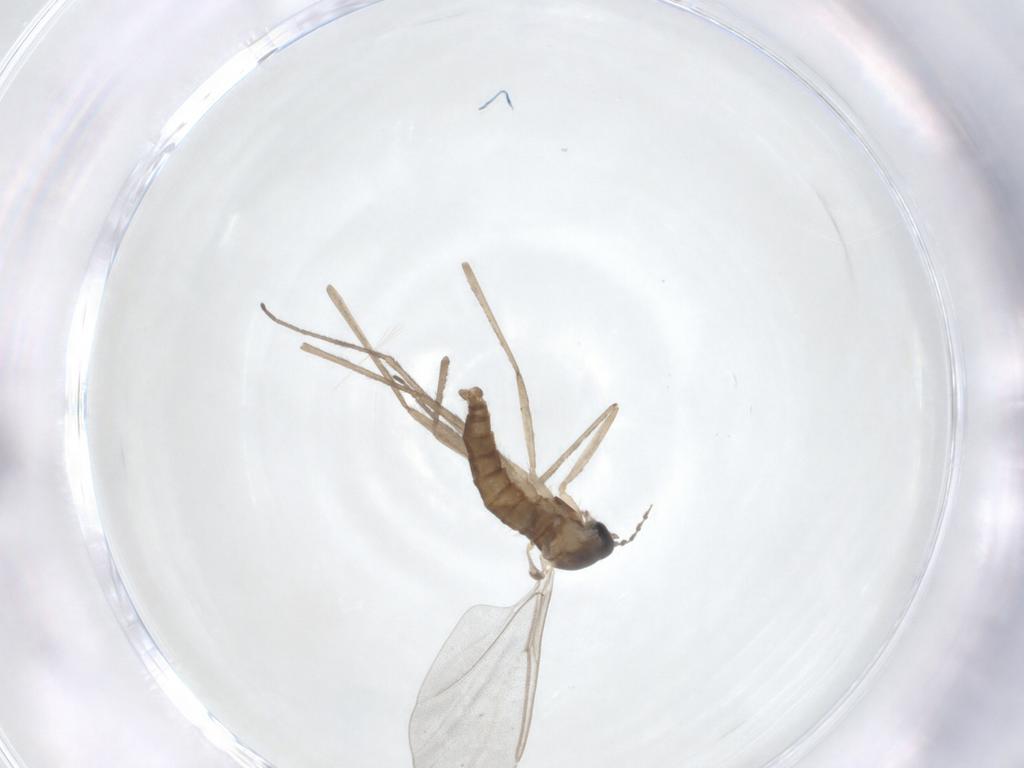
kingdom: Animalia
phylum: Arthropoda
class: Insecta
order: Diptera
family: Cecidomyiidae
